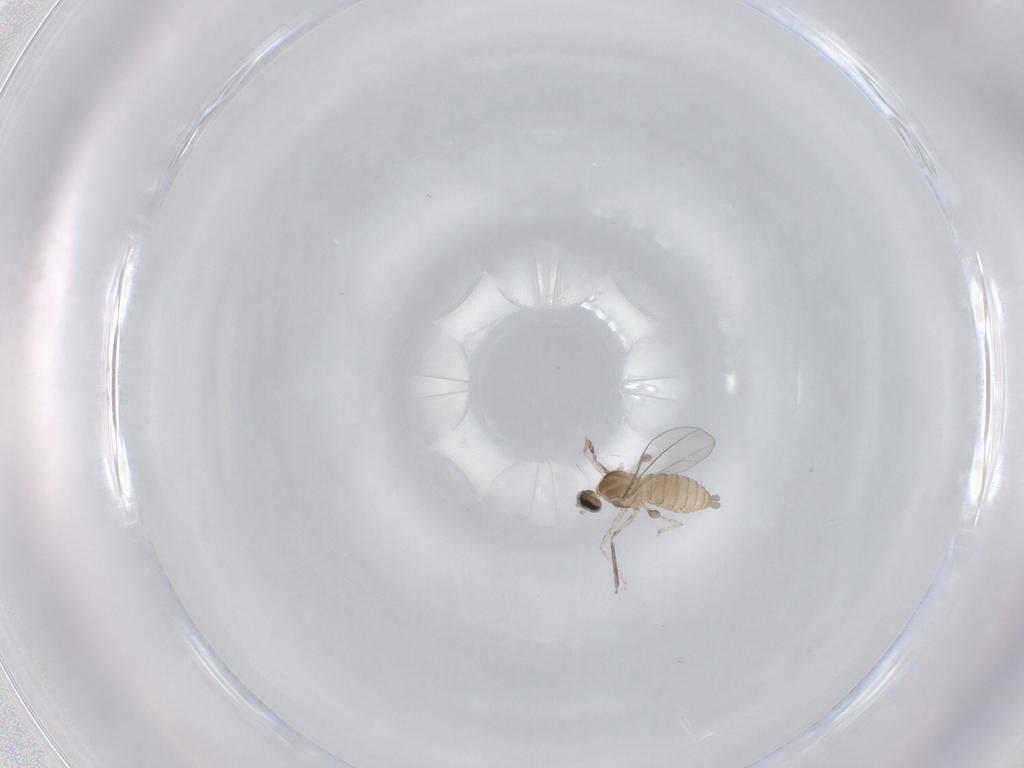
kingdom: Animalia
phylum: Arthropoda
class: Insecta
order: Diptera
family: Cecidomyiidae
